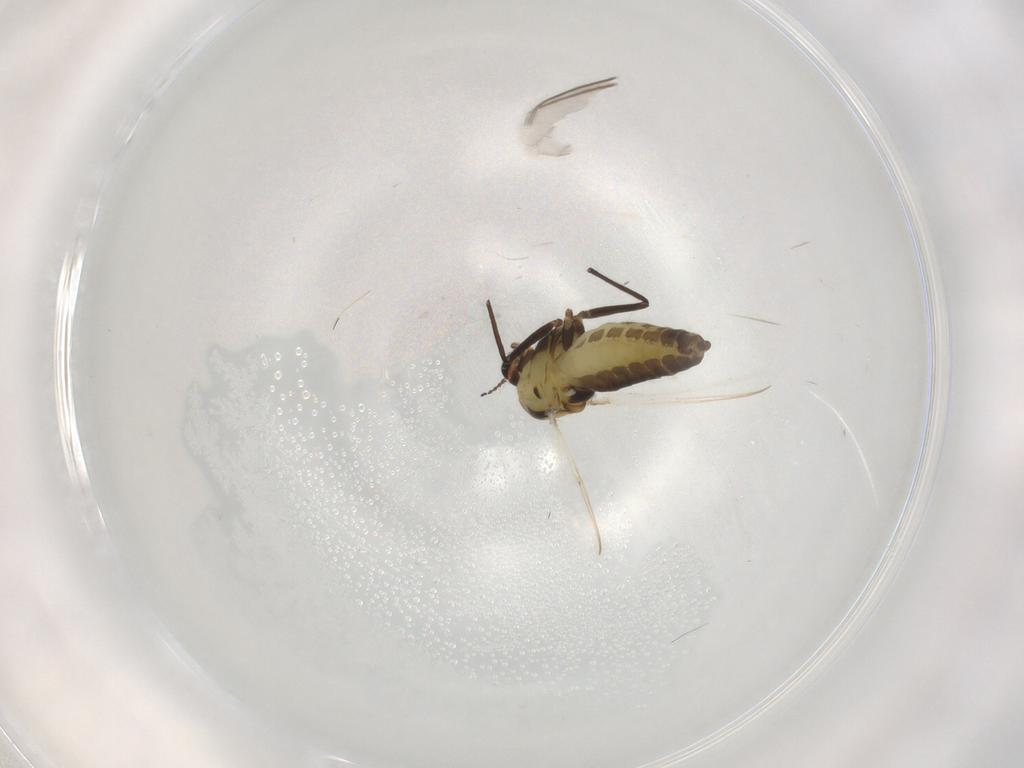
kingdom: Animalia
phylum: Arthropoda
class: Insecta
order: Diptera
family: Chironomidae
